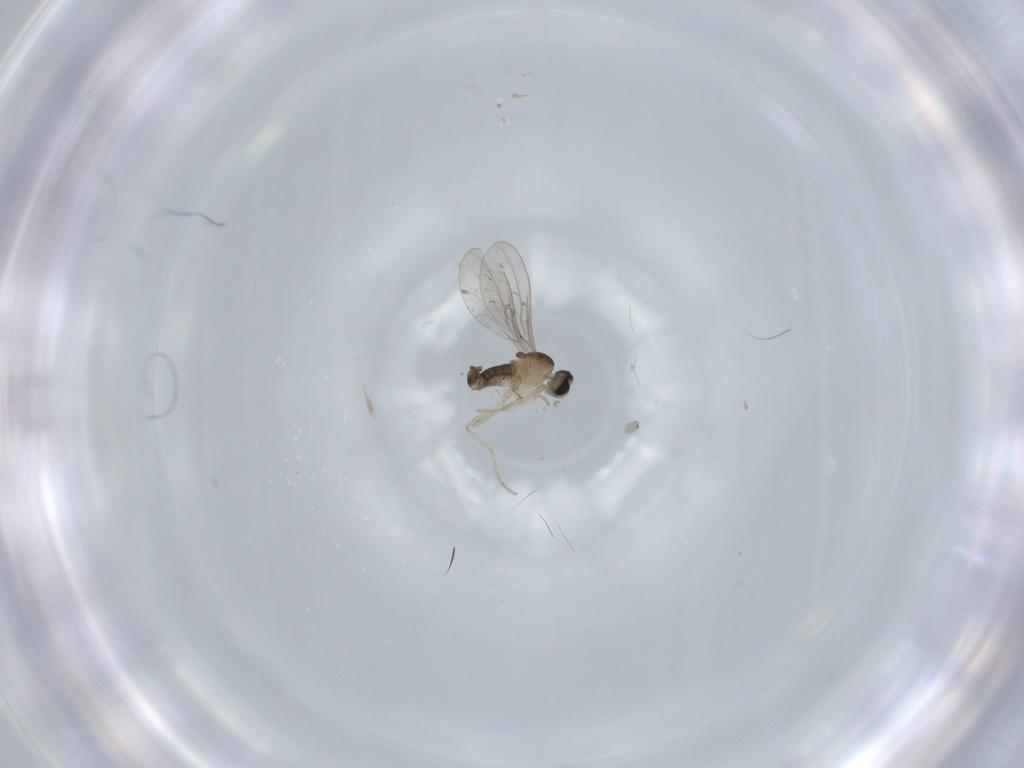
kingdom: Animalia
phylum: Arthropoda
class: Insecta
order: Diptera
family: Cecidomyiidae
